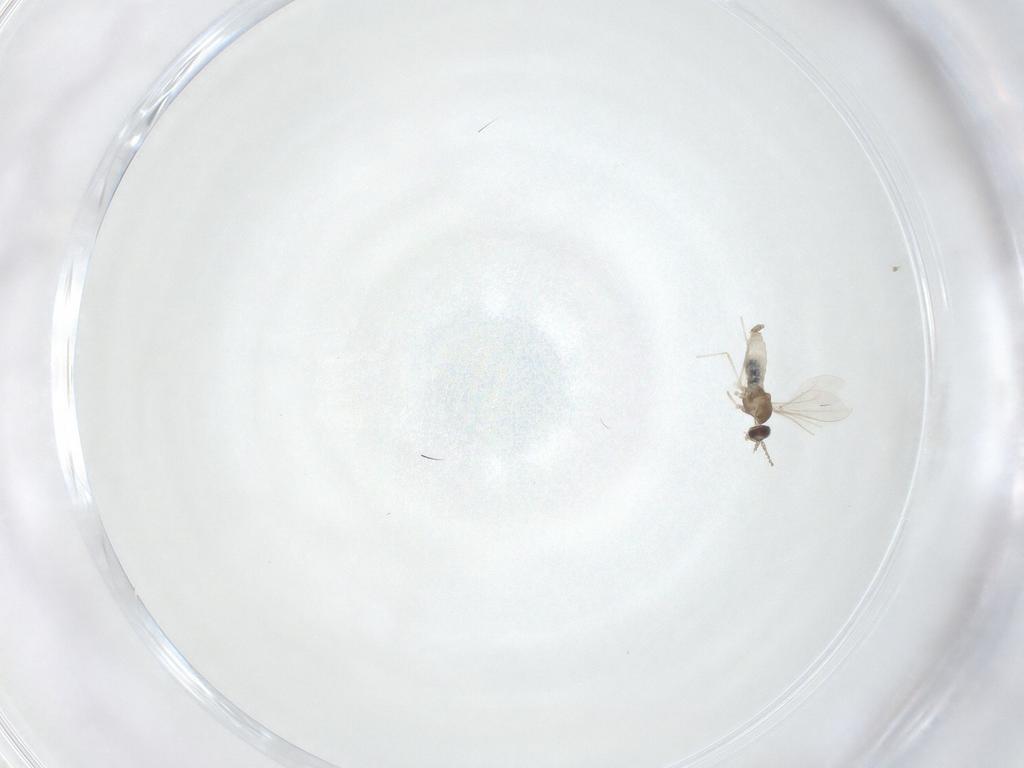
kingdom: Animalia
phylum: Arthropoda
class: Insecta
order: Diptera
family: Cecidomyiidae
